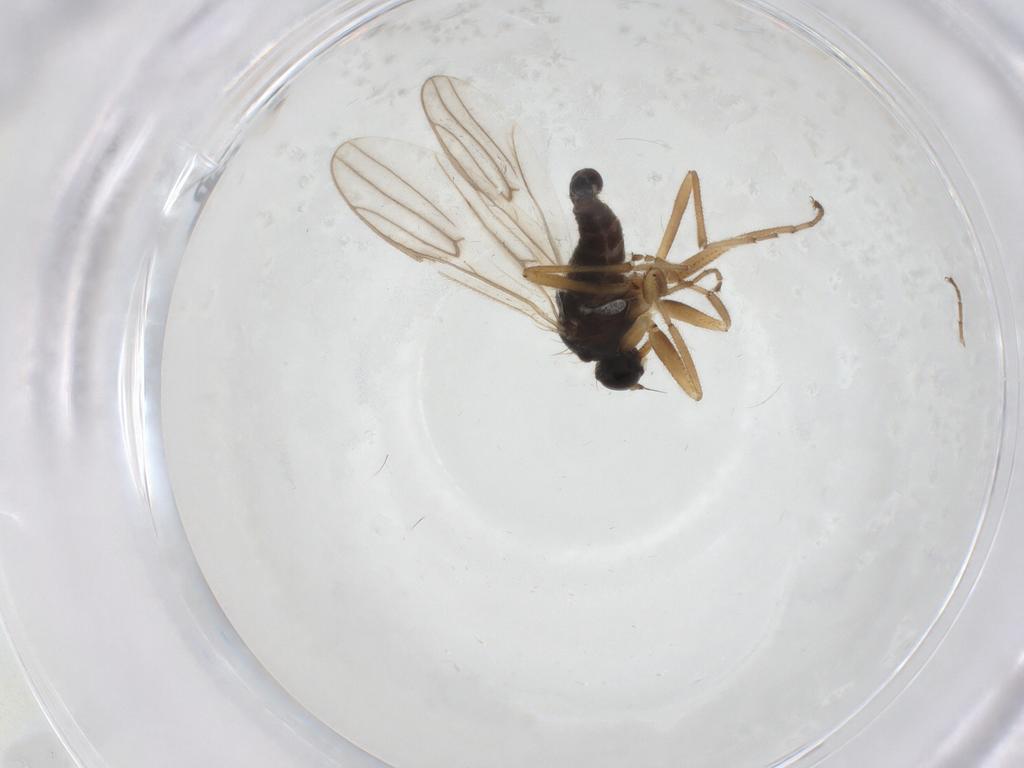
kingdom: Animalia
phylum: Arthropoda
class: Insecta
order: Diptera
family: Hybotidae
